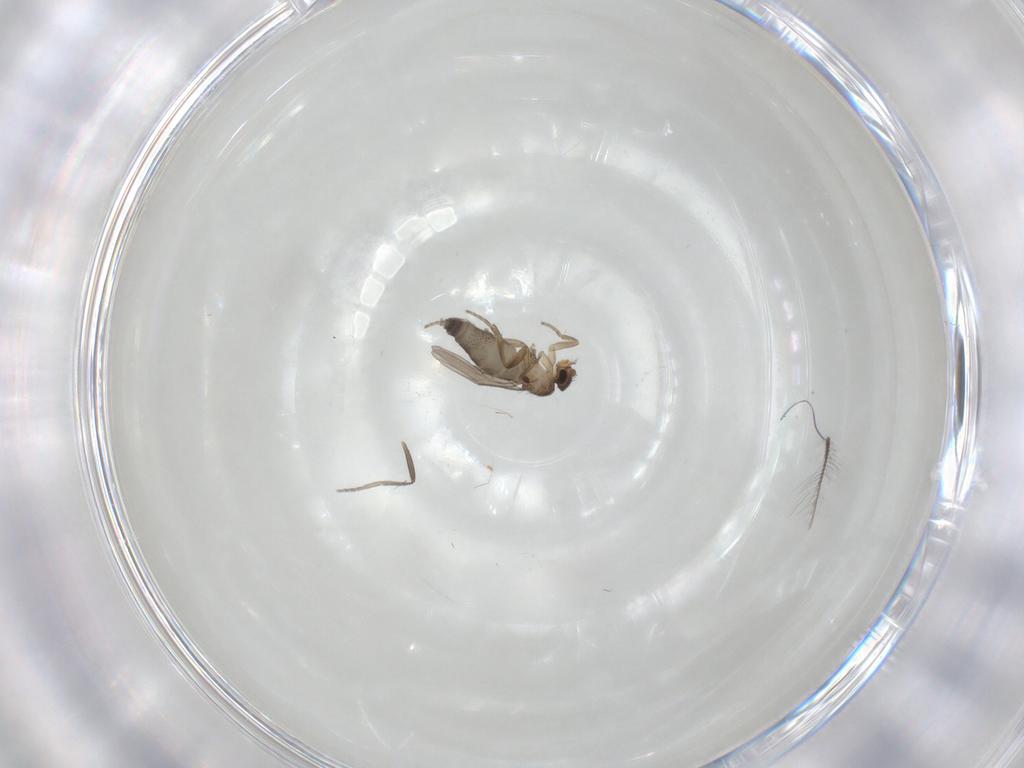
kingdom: Animalia
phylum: Arthropoda
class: Insecta
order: Diptera
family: Phoridae
